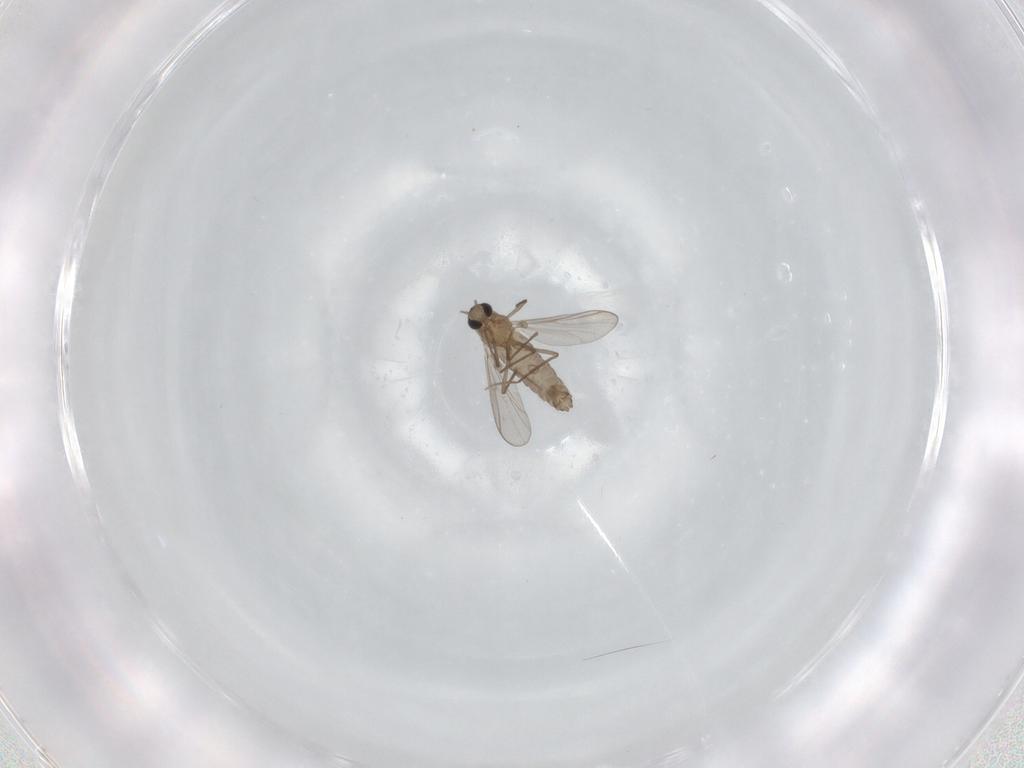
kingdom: Animalia
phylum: Arthropoda
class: Insecta
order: Diptera
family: Chironomidae
